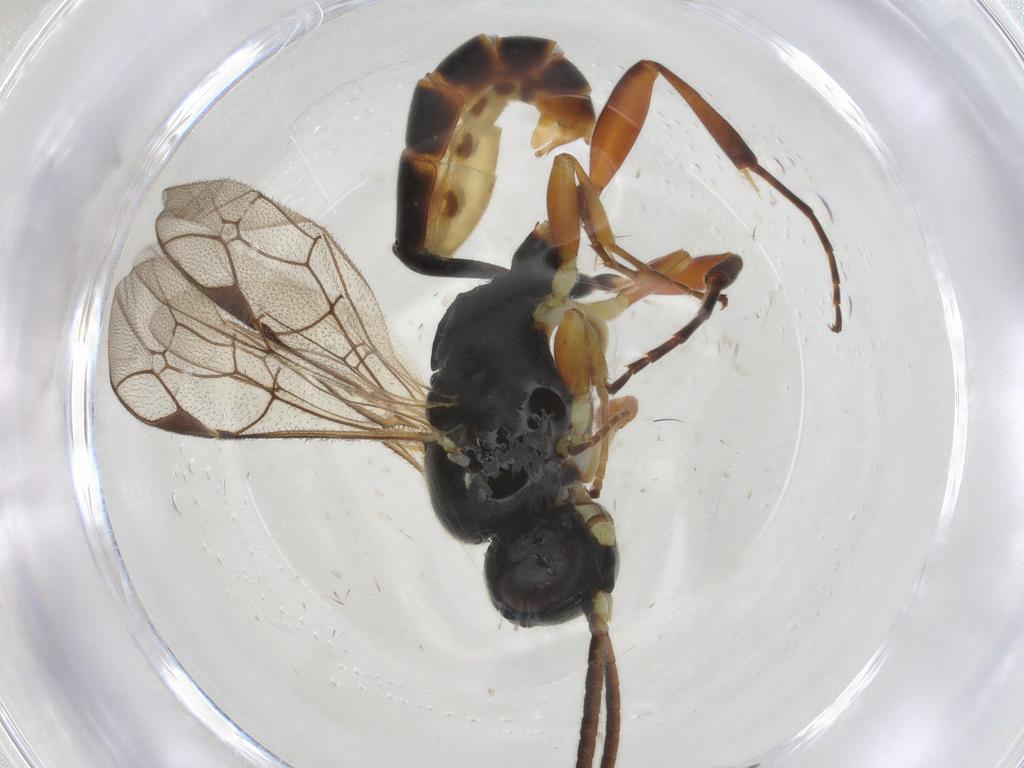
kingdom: Animalia
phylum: Arthropoda
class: Insecta
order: Hymenoptera
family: Ichneumonidae
